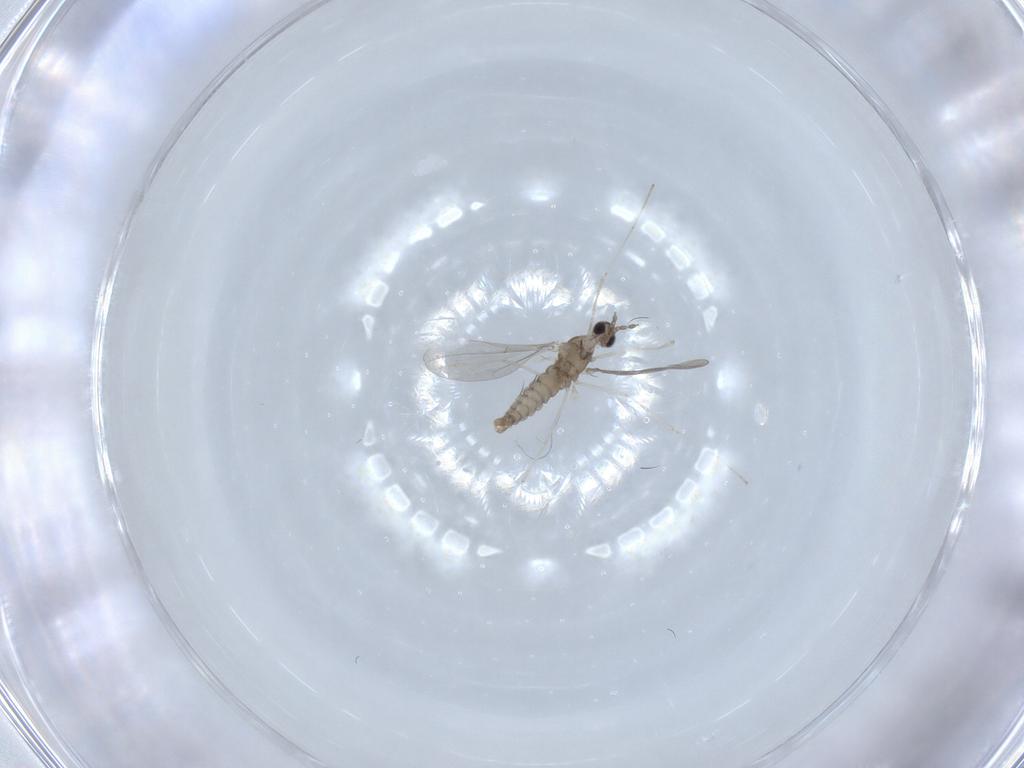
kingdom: Animalia
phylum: Arthropoda
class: Insecta
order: Diptera
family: Cecidomyiidae
